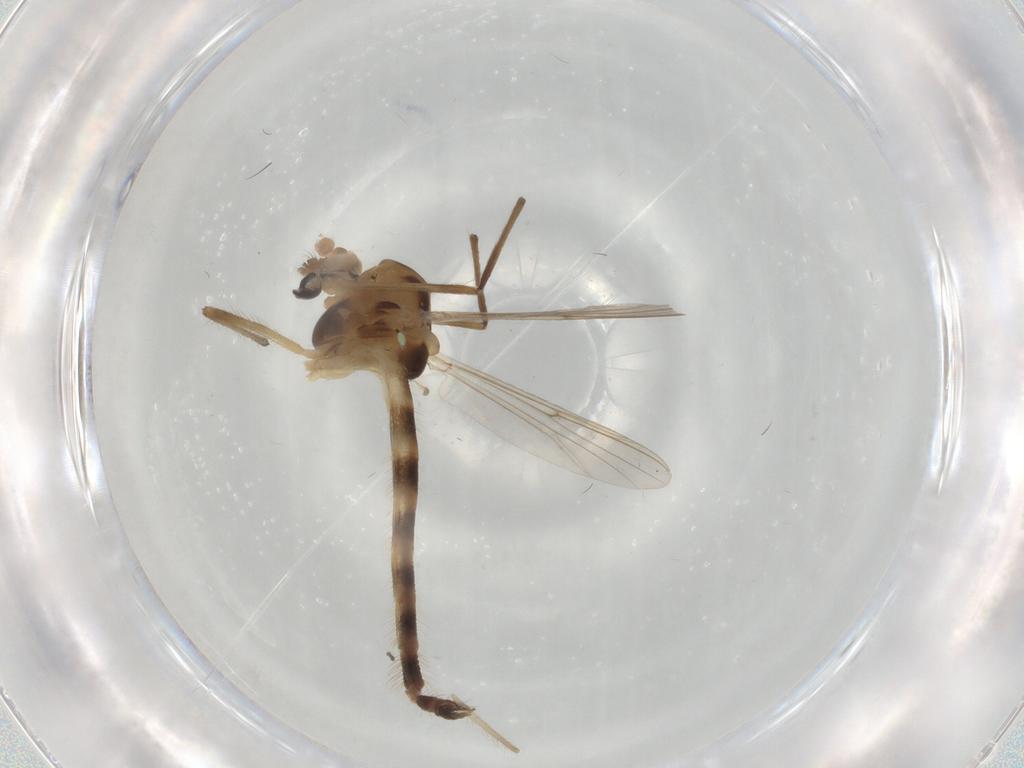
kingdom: Animalia
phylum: Arthropoda
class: Insecta
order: Diptera
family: Chironomidae
